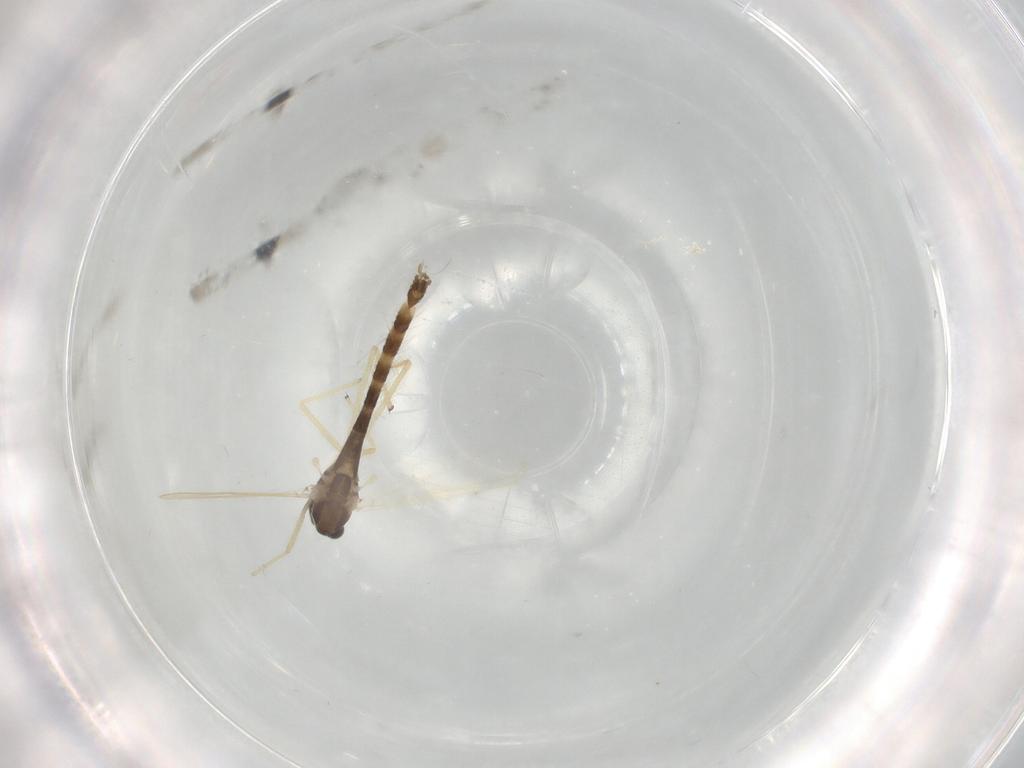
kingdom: Animalia
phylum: Arthropoda
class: Insecta
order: Diptera
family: Chironomidae
